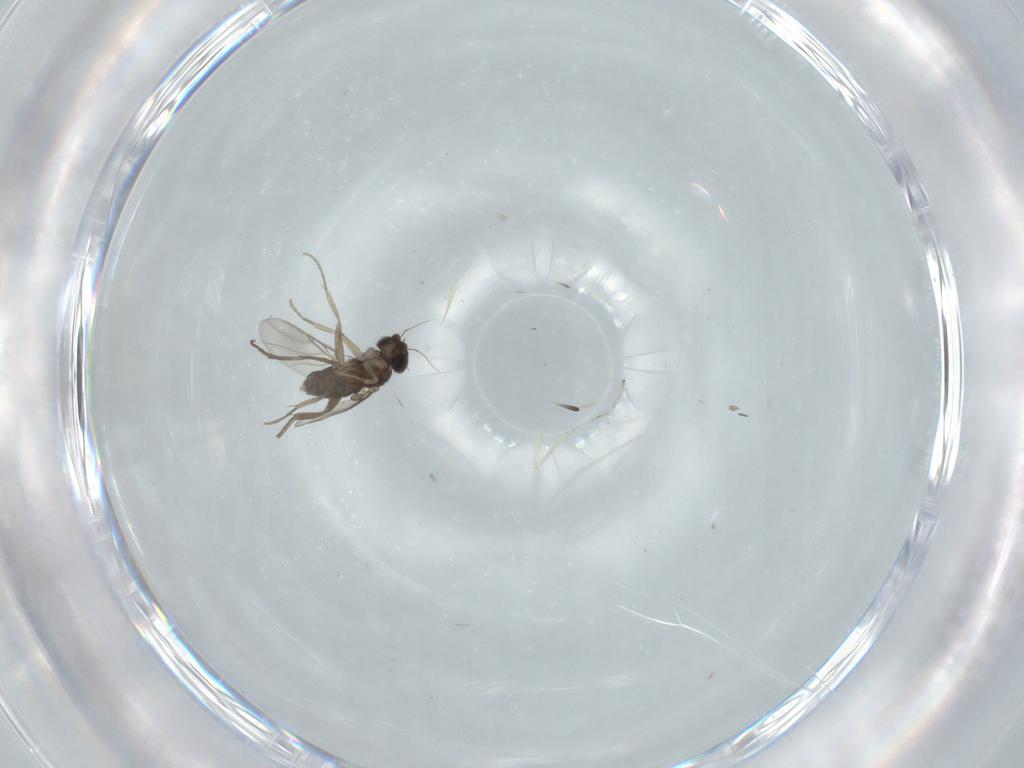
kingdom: Animalia
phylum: Arthropoda
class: Insecta
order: Diptera
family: Cecidomyiidae
